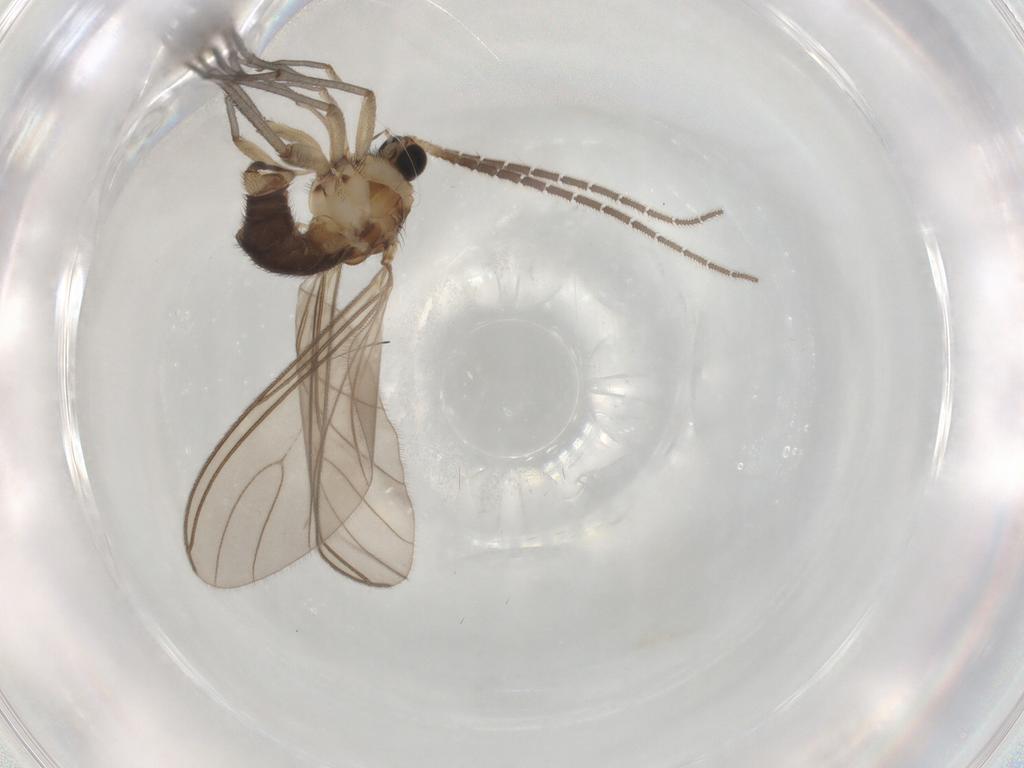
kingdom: Animalia
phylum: Arthropoda
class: Insecta
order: Diptera
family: Sciaridae
